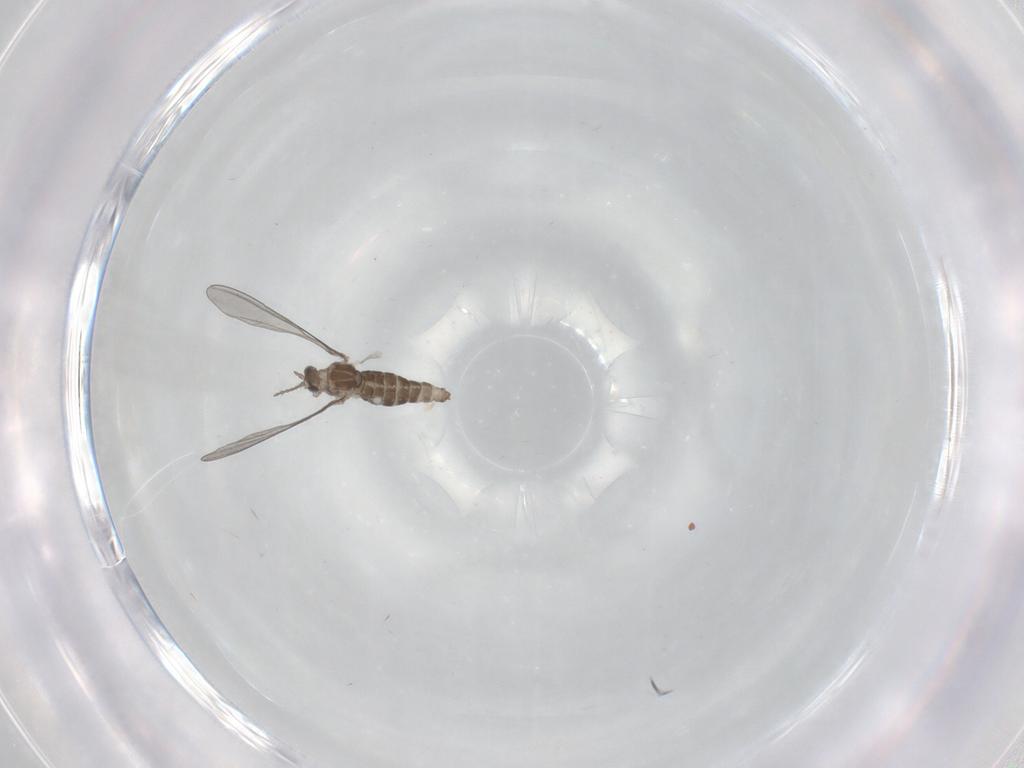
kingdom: Animalia
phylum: Arthropoda
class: Insecta
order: Diptera
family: Cecidomyiidae
